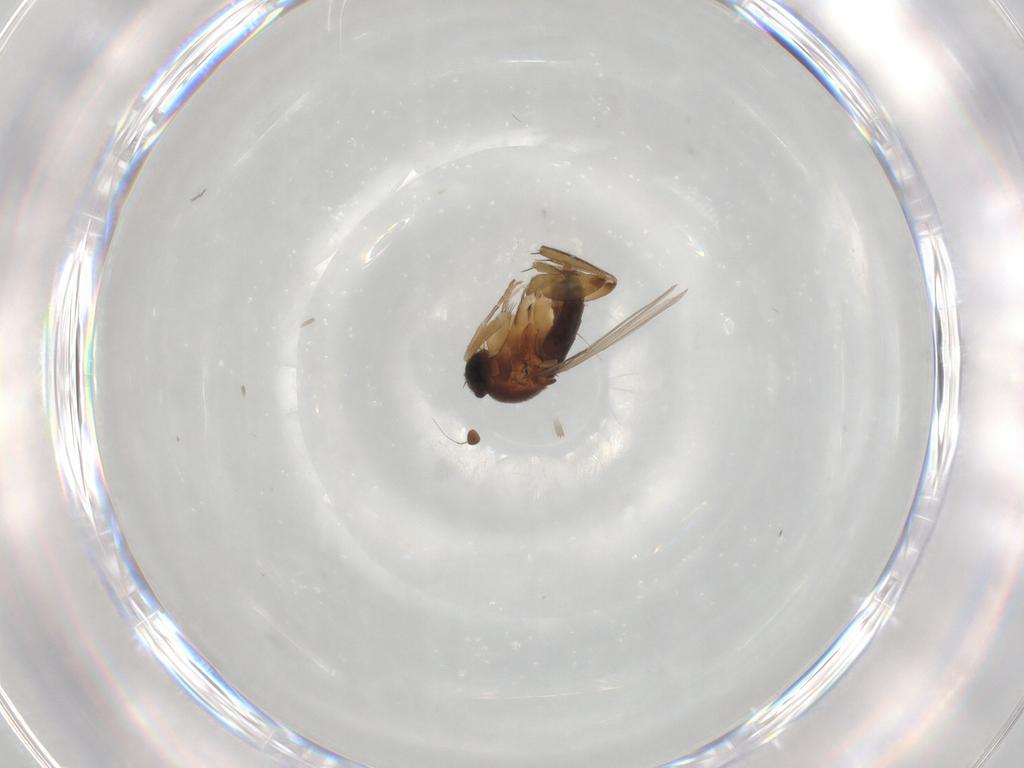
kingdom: Animalia
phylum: Arthropoda
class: Insecta
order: Diptera
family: Phoridae
